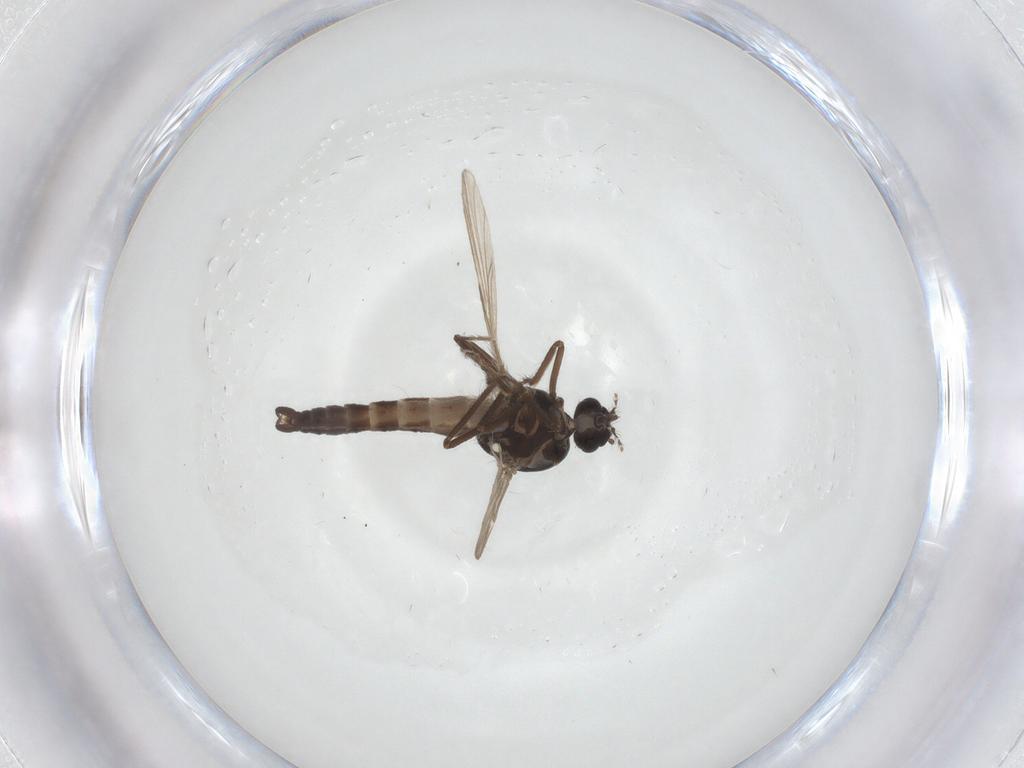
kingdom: Animalia
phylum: Arthropoda
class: Insecta
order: Diptera
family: Ceratopogonidae
